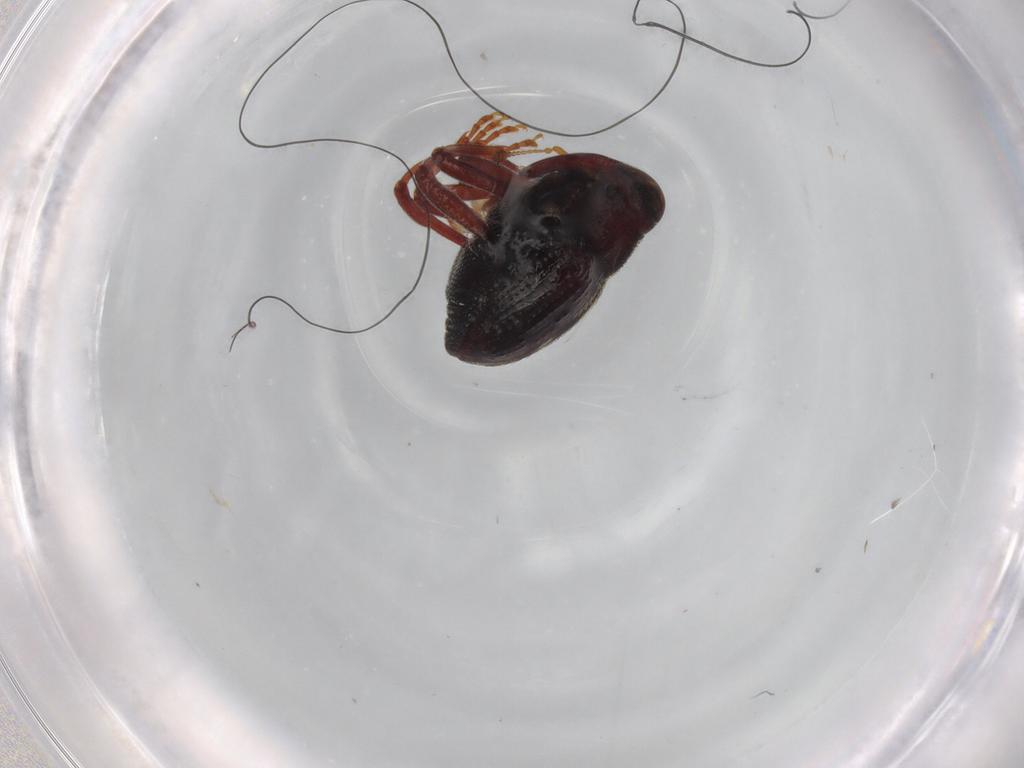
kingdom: Animalia
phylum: Arthropoda
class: Insecta
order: Coleoptera
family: Curculionidae
